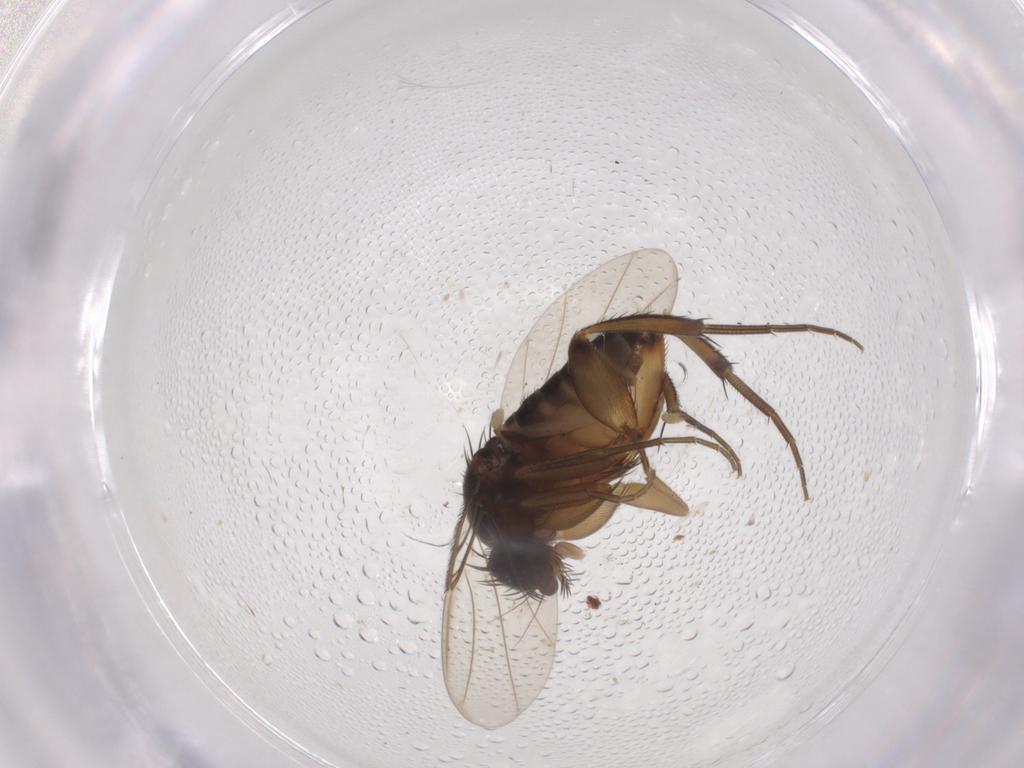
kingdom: Animalia
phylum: Arthropoda
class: Insecta
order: Diptera
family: Phoridae
